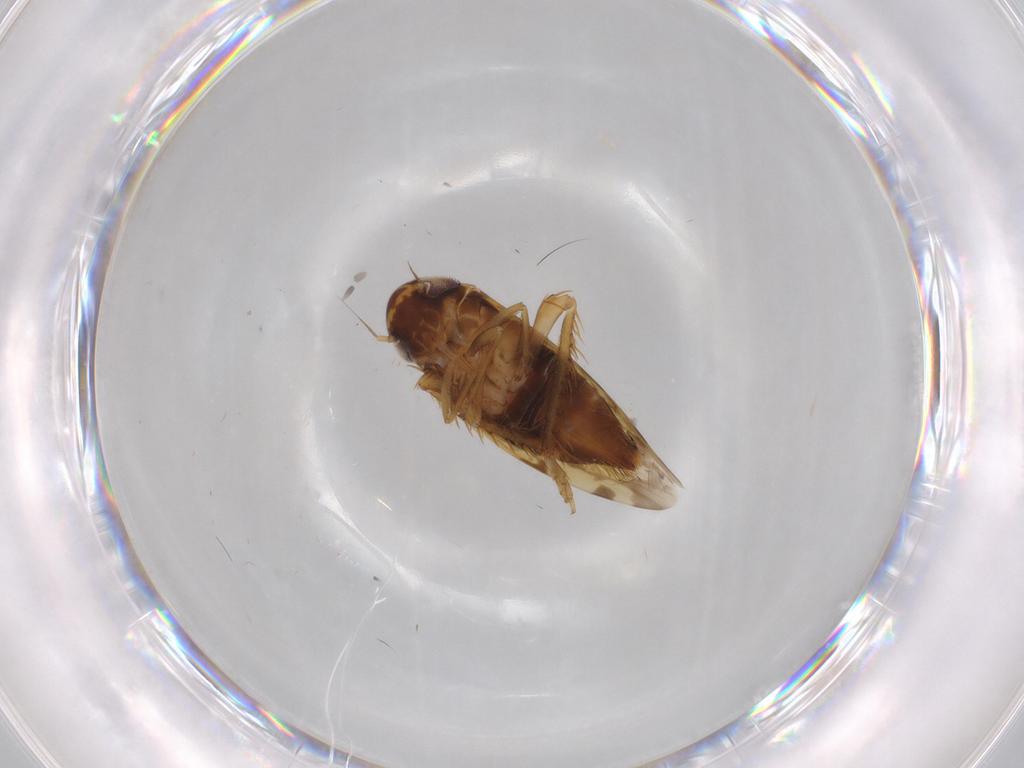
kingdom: Animalia
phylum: Arthropoda
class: Insecta
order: Hemiptera
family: Cicadellidae
